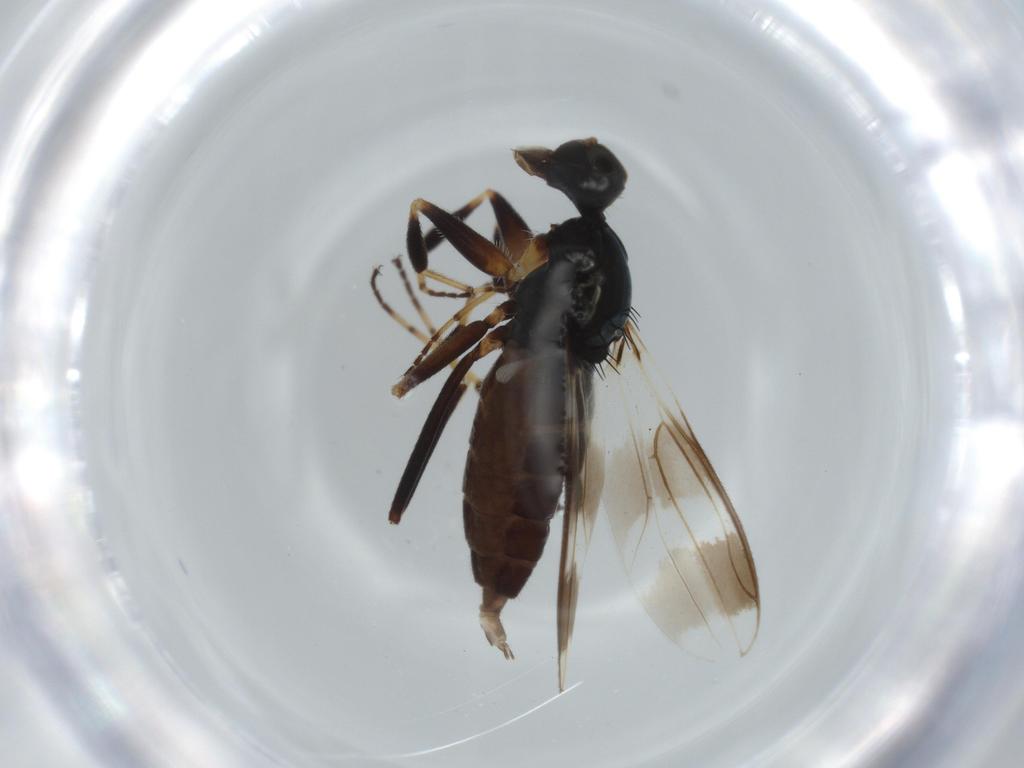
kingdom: Animalia
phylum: Arthropoda
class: Insecta
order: Diptera
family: Hybotidae
